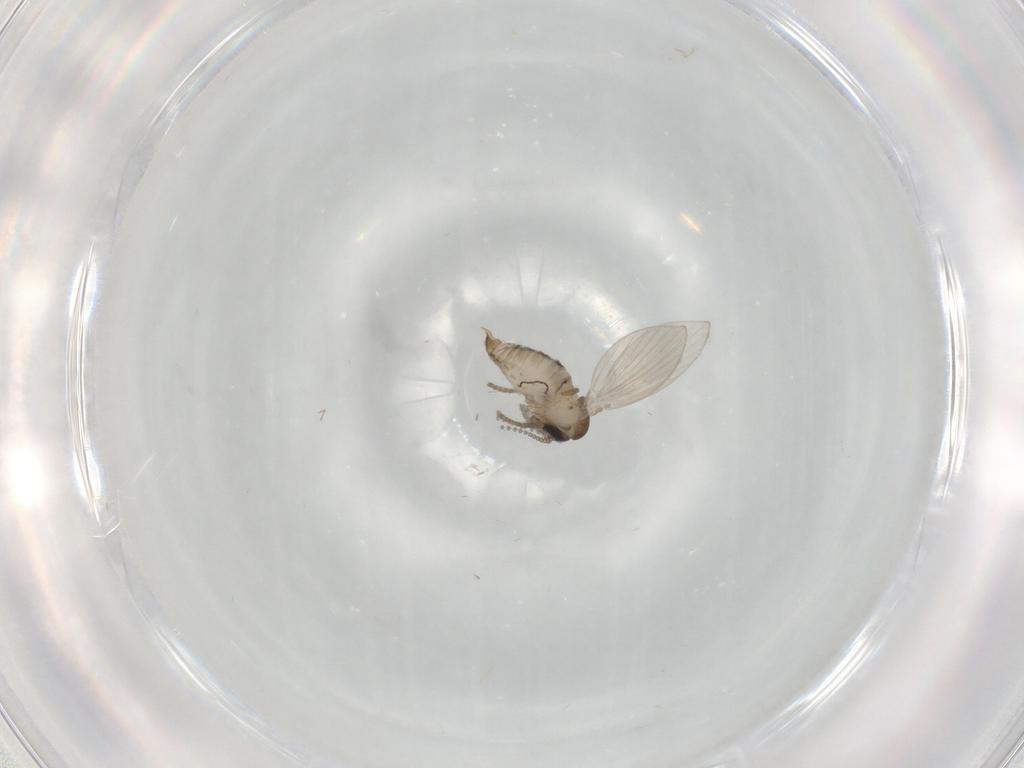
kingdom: Animalia
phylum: Arthropoda
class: Insecta
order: Diptera
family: Psychodidae
